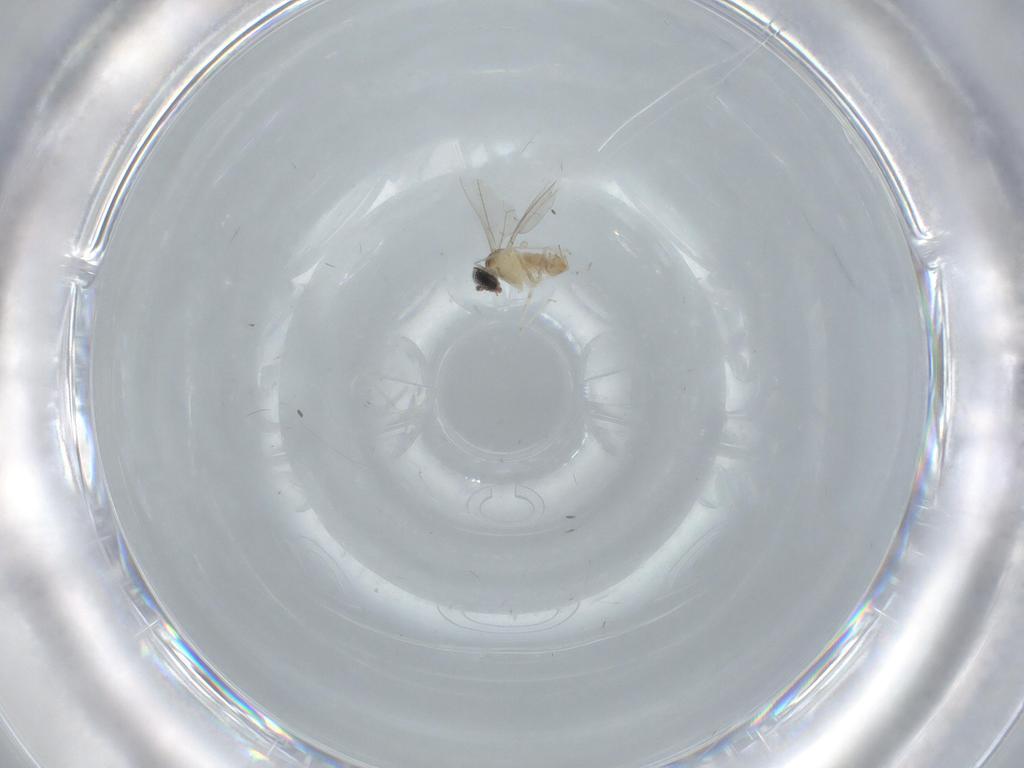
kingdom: Animalia
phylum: Arthropoda
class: Insecta
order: Diptera
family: Cecidomyiidae
